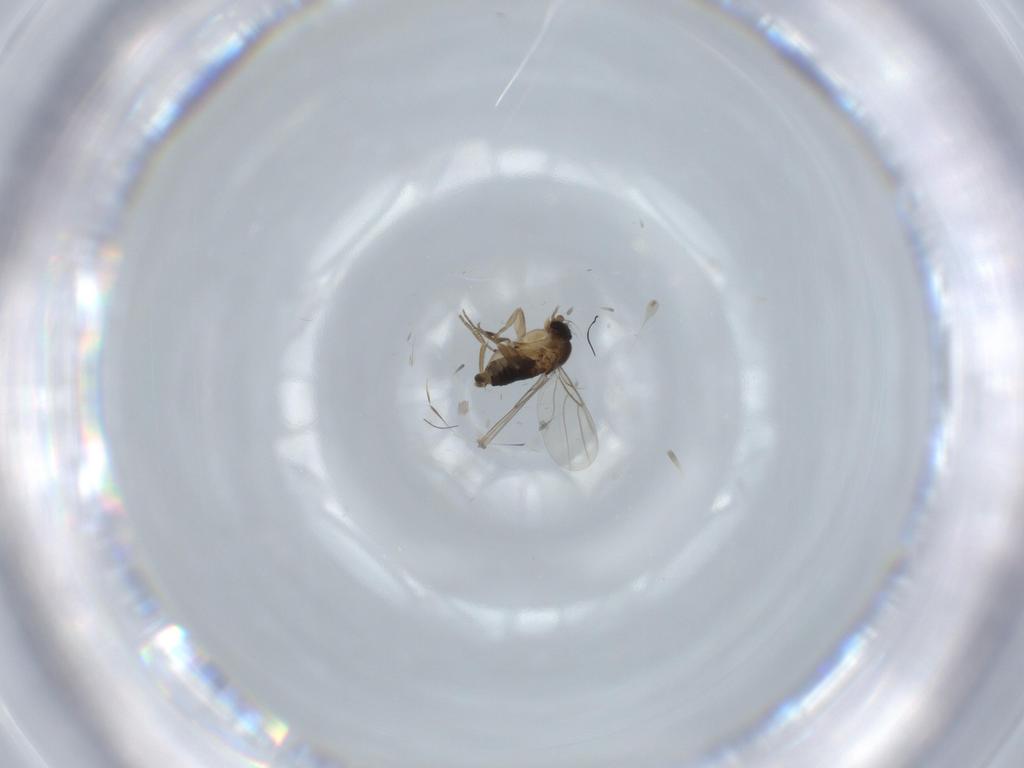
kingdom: Animalia
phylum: Arthropoda
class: Insecta
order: Diptera
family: Phoridae
